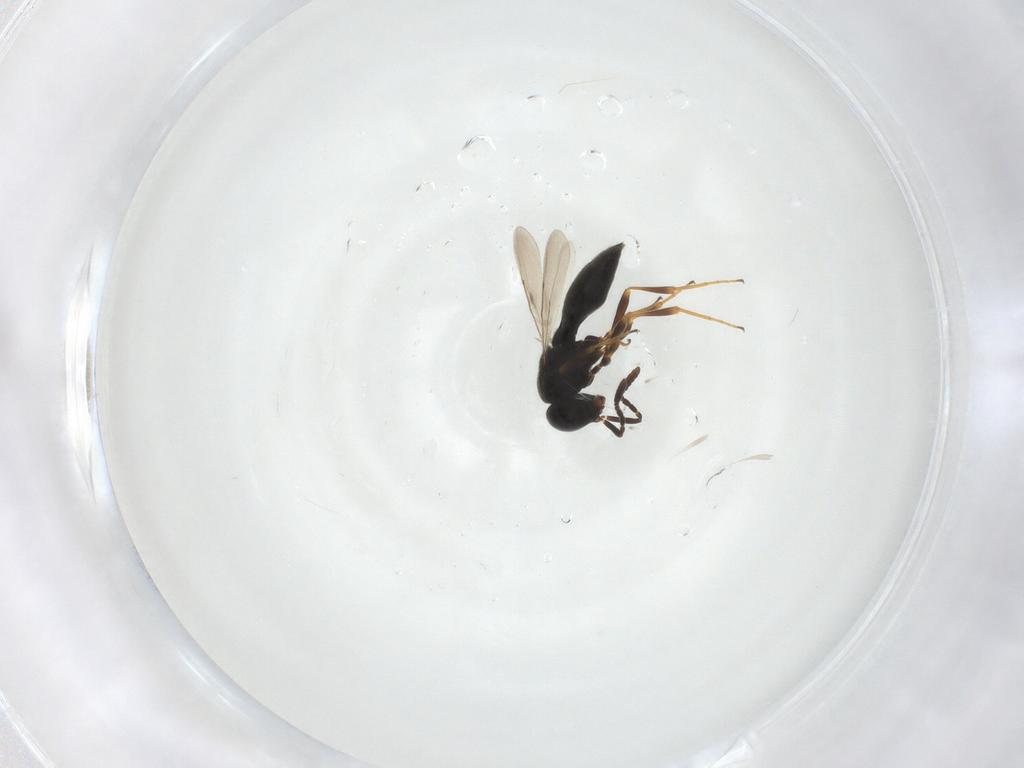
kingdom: Animalia
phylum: Arthropoda
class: Insecta
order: Hymenoptera
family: Scelionidae
